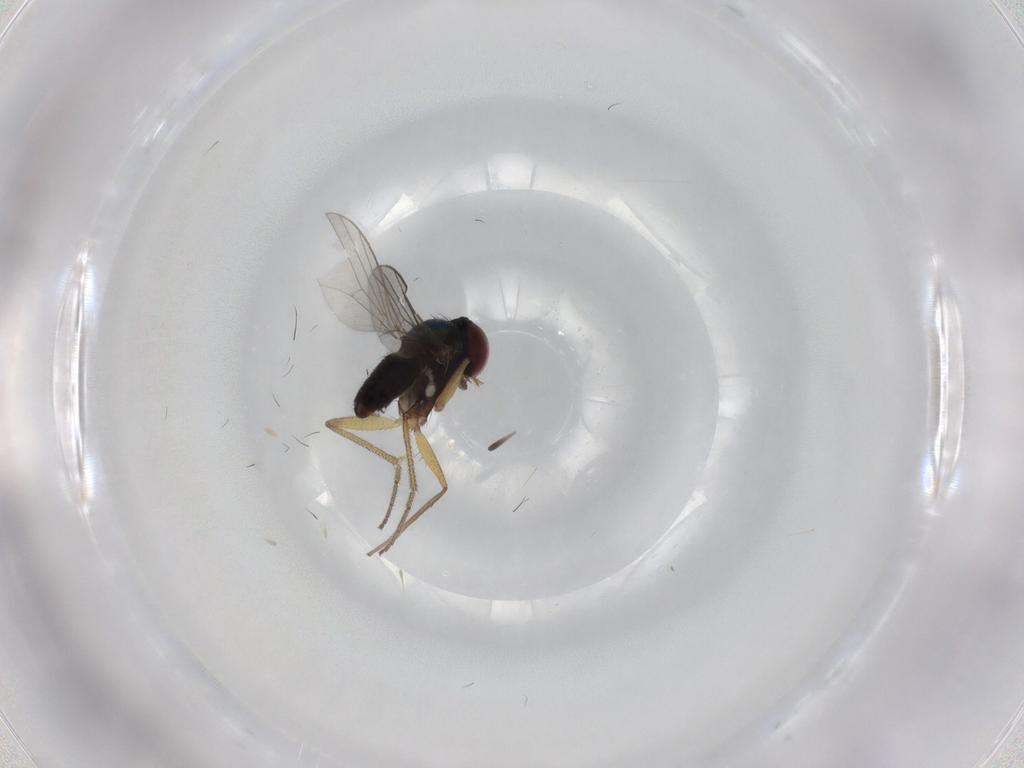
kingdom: Animalia
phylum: Arthropoda
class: Insecta
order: Diptera
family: Dolichopodidae
